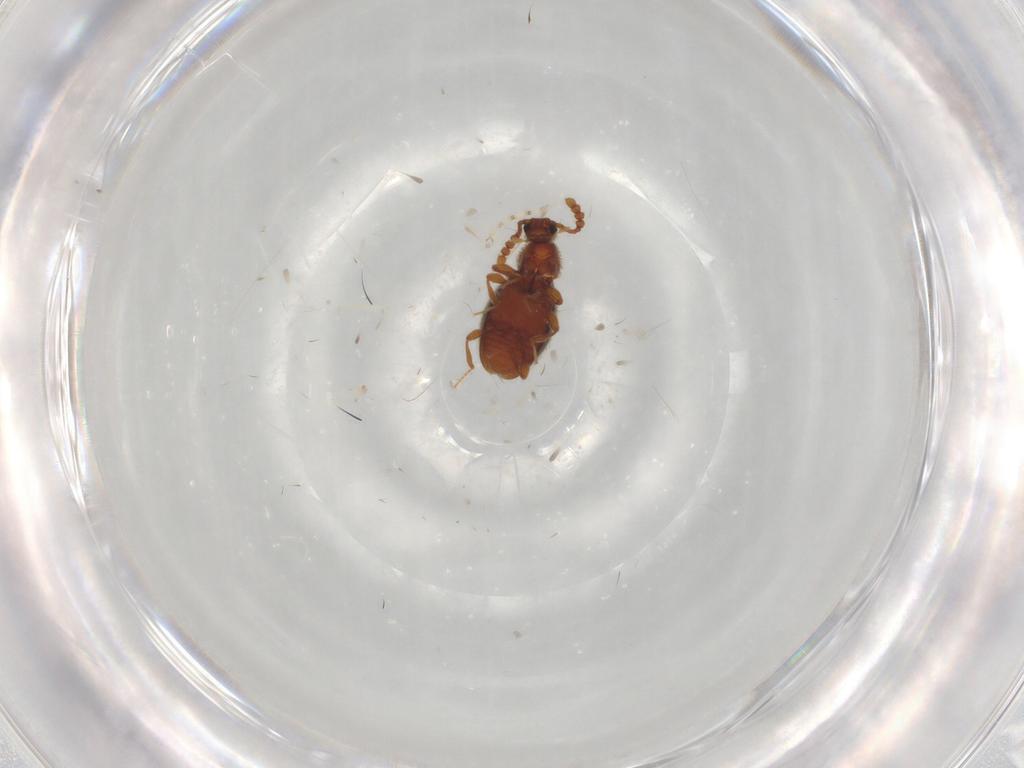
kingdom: Animalia
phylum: Arthropoda
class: Insecta
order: Coleoptera
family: Staphylinidae
